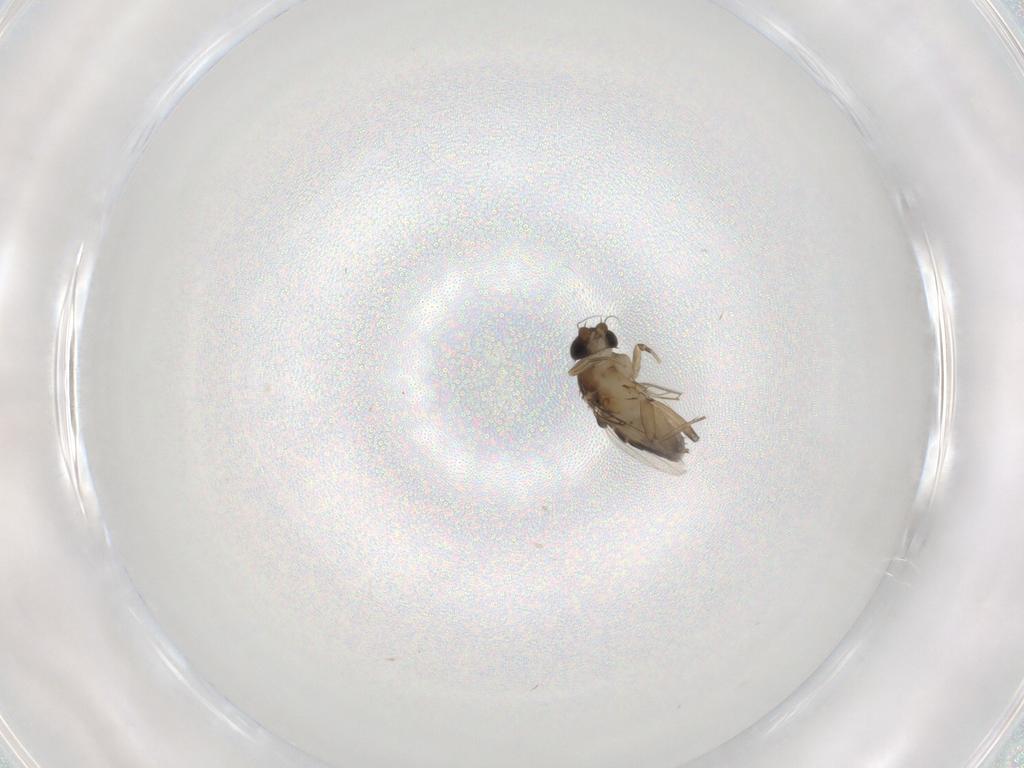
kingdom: Animalia
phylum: Arthropoda
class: Insecta
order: Diptera
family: Phoridae
